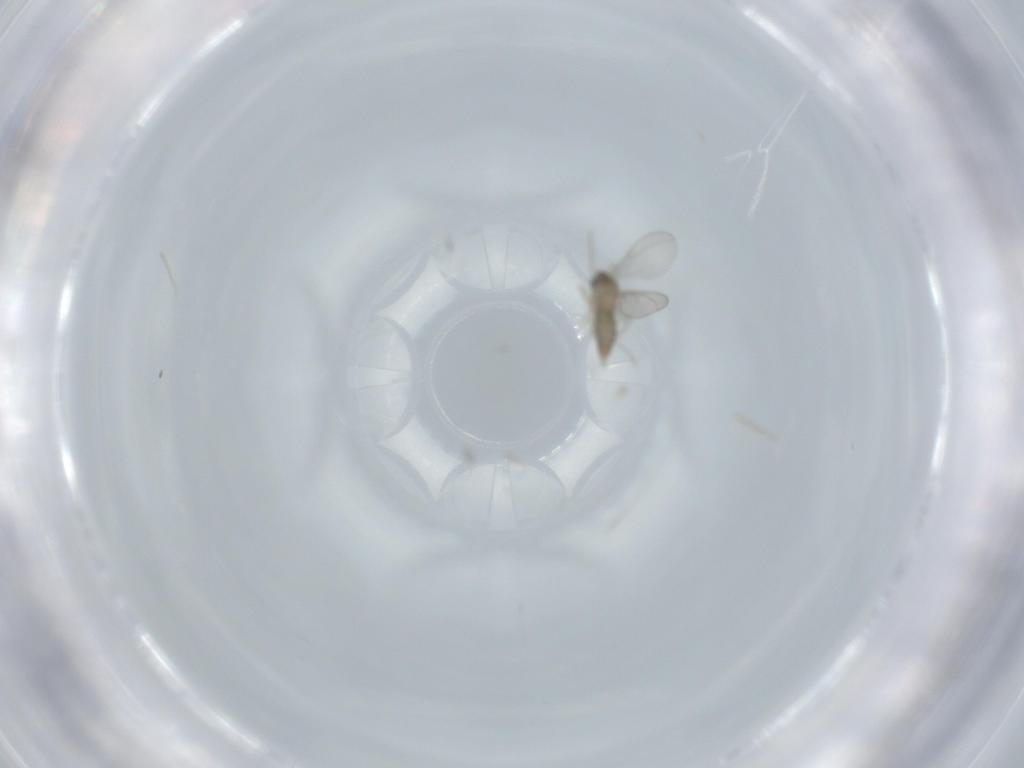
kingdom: Animalia
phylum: Arthropoda
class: Insecta
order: Diptera
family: Cecidomyiidae
